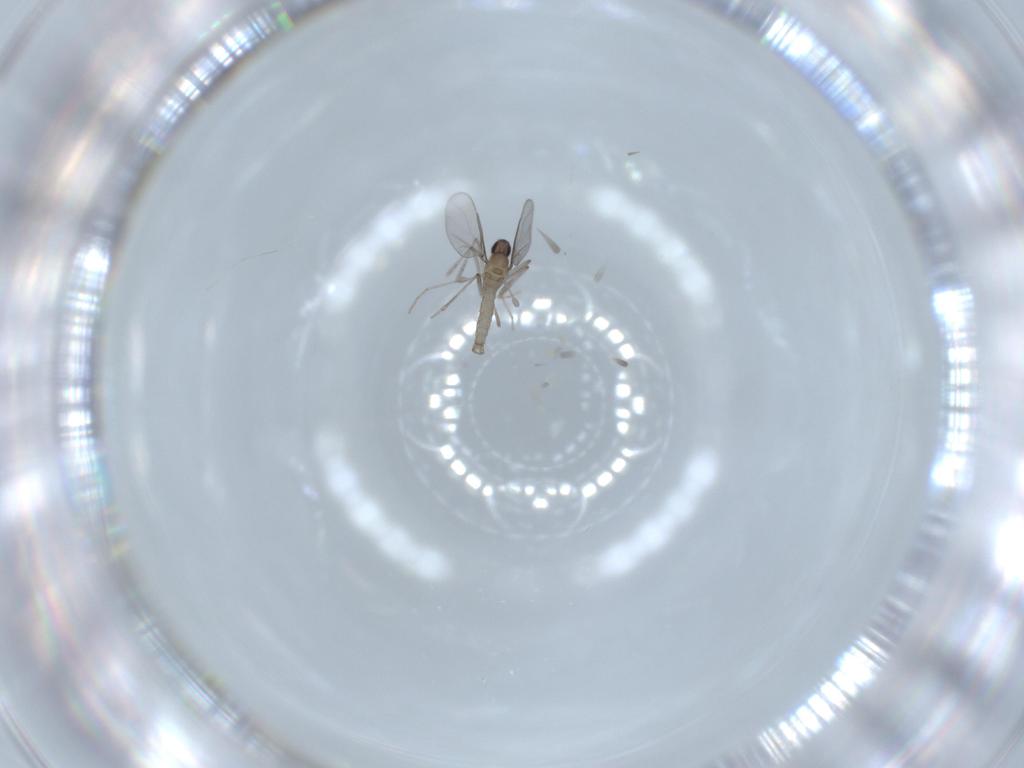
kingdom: Animalia
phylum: Arthropoda
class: Insecta
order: Diptera
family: Cecidomyiidae
